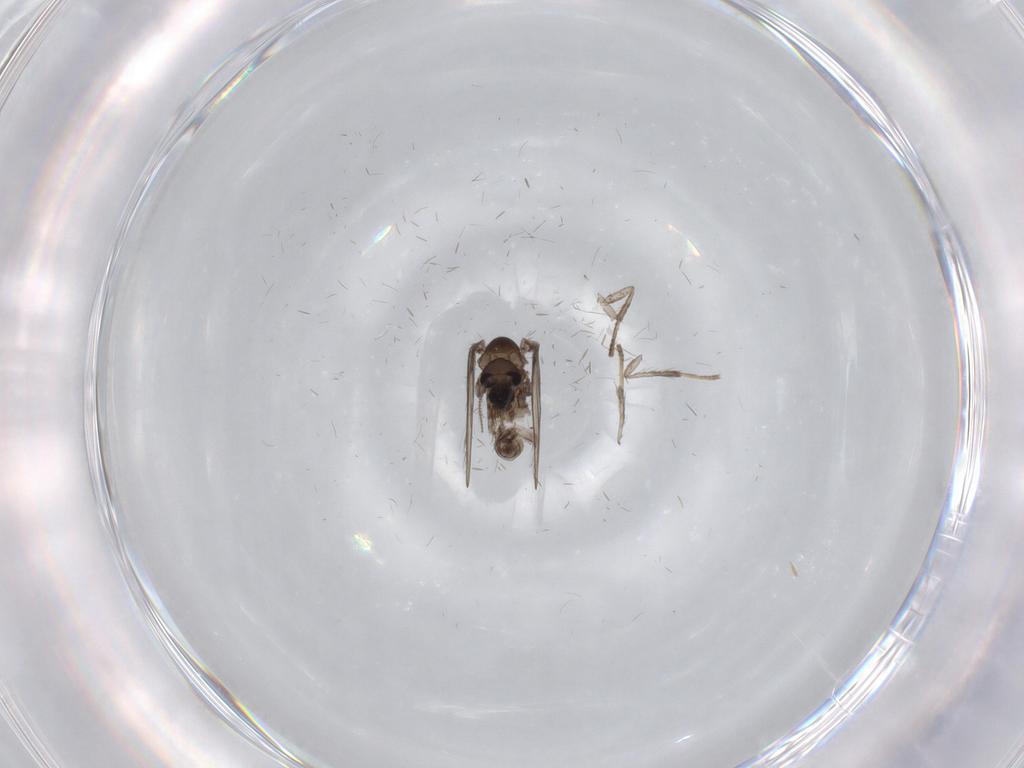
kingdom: Animalia
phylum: Arthropoda
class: Insecta
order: Diptera
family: Psychodidae
